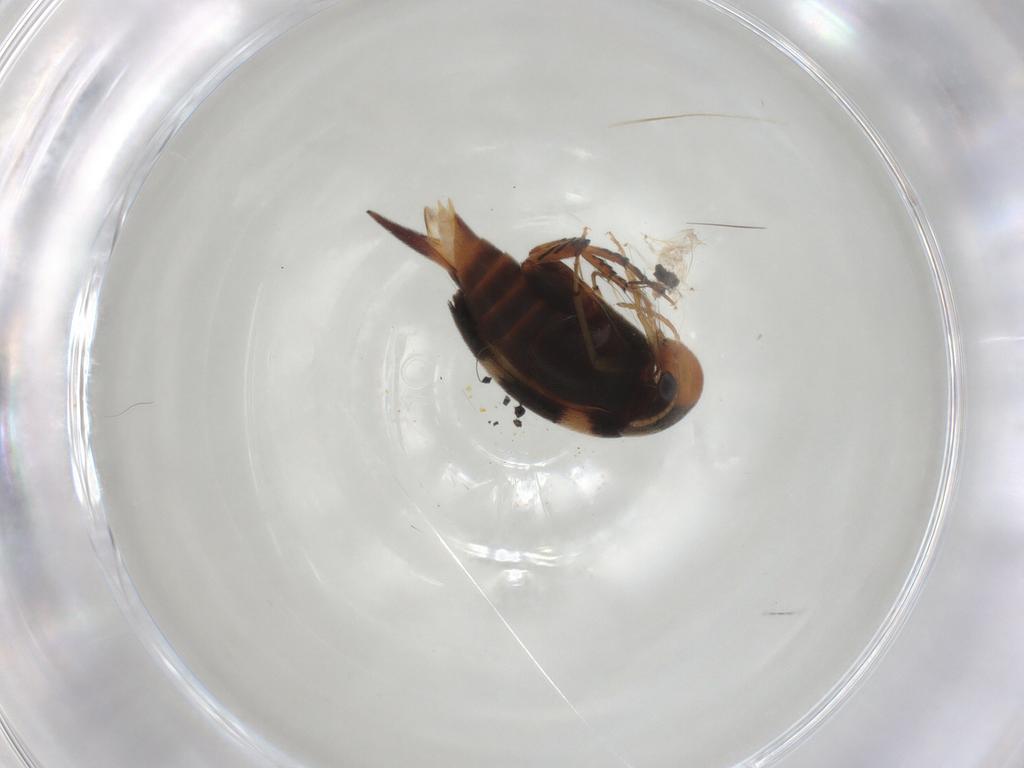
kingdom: Animalia
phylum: Arthropoda
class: Insecta
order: Coleoptera
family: Mordellidae
